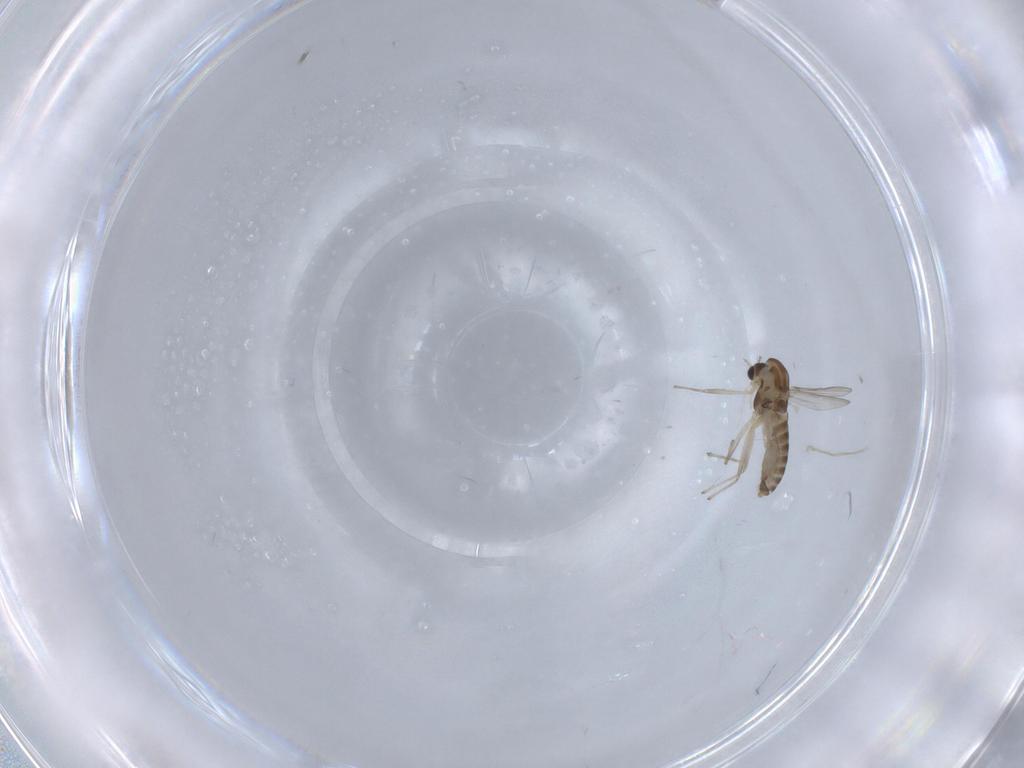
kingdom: Animalia
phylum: Arthropoda
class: Insecta
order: Diptera
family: Chironomidae
